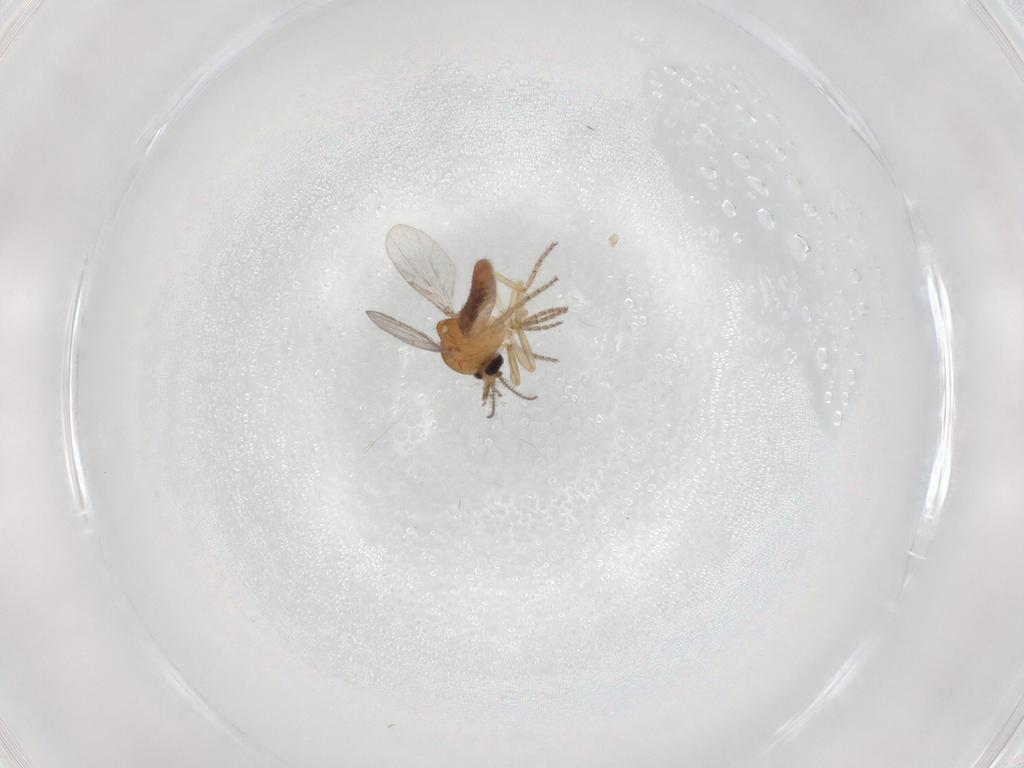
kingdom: Animalia
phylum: Arthropoda
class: Insecta
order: Diptera
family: Ceratopogonidae
